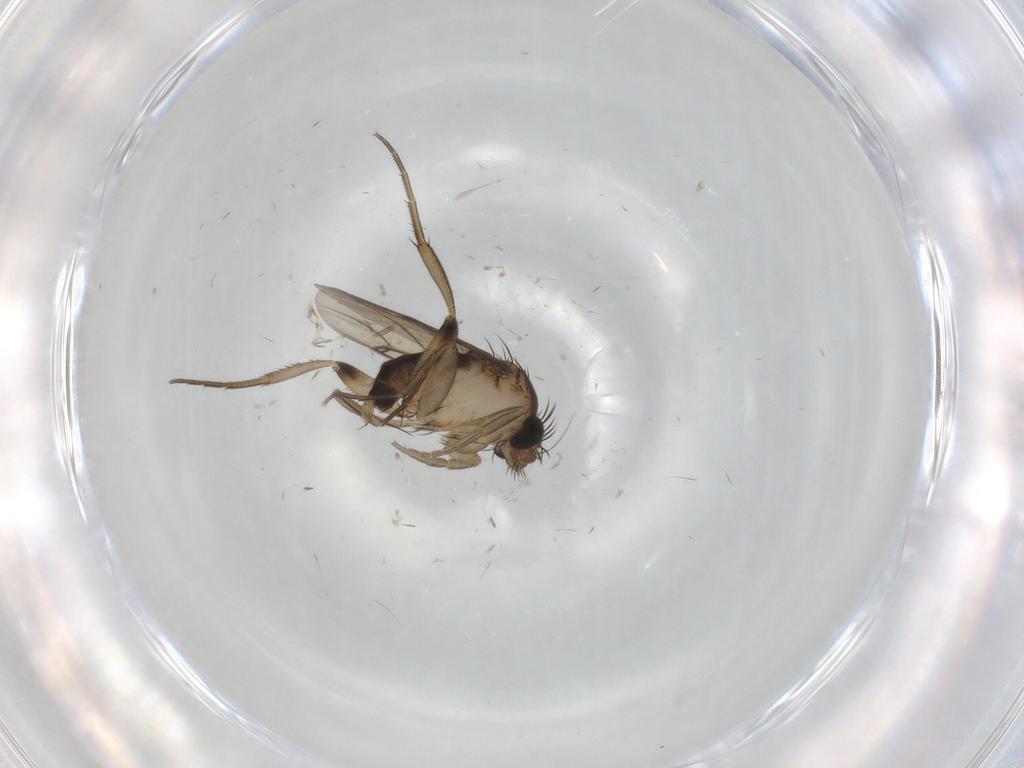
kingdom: Animalia
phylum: Arthropoda
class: Insecta
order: Diptera
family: Phoridae
